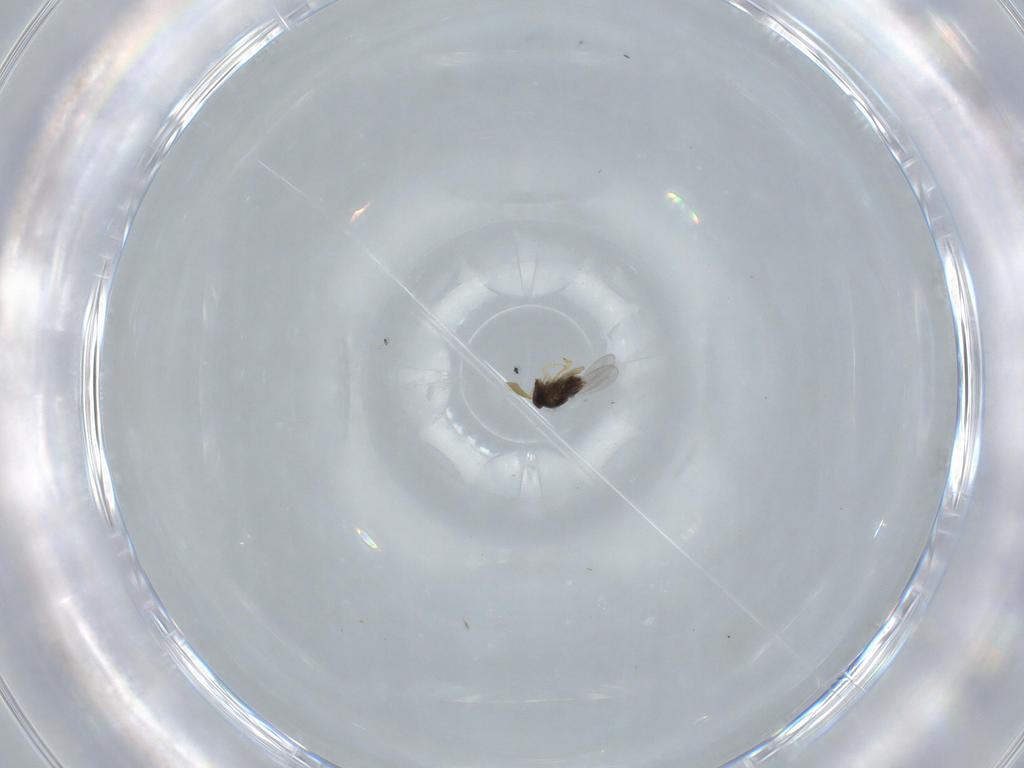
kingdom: Animalia
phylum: Arthropoda
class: Insecta
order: Hymenoptera
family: Encyrtidae
